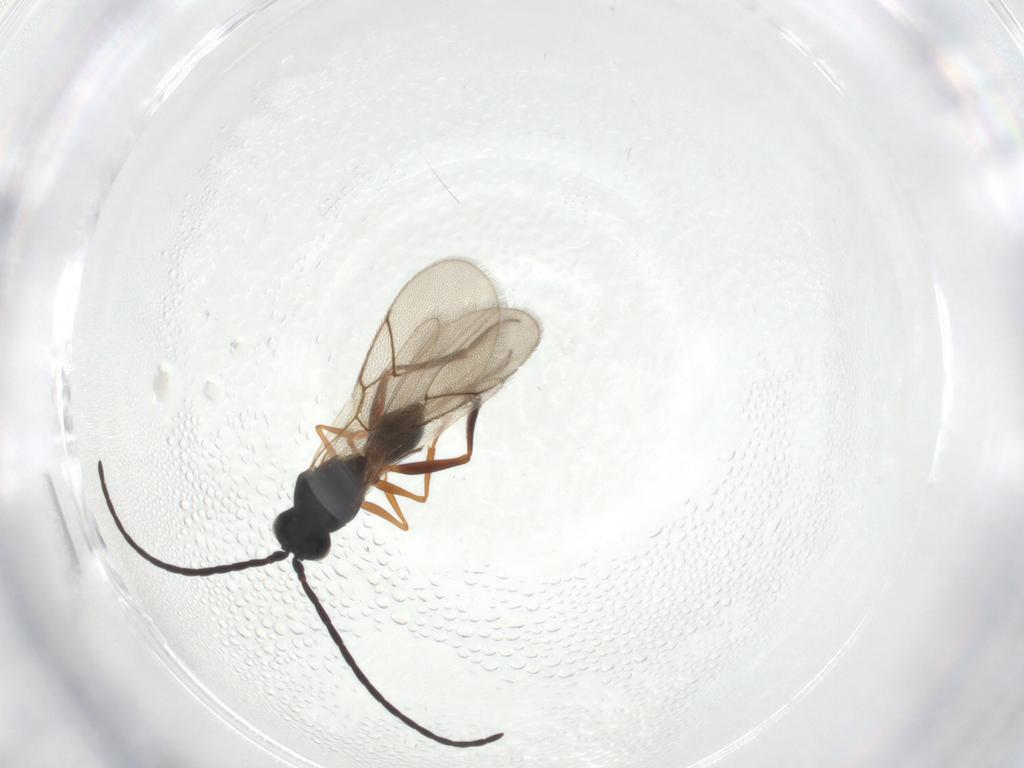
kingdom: Animalia
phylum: Arthropoda
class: Insecta
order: Hymenoptera
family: Figitidae
